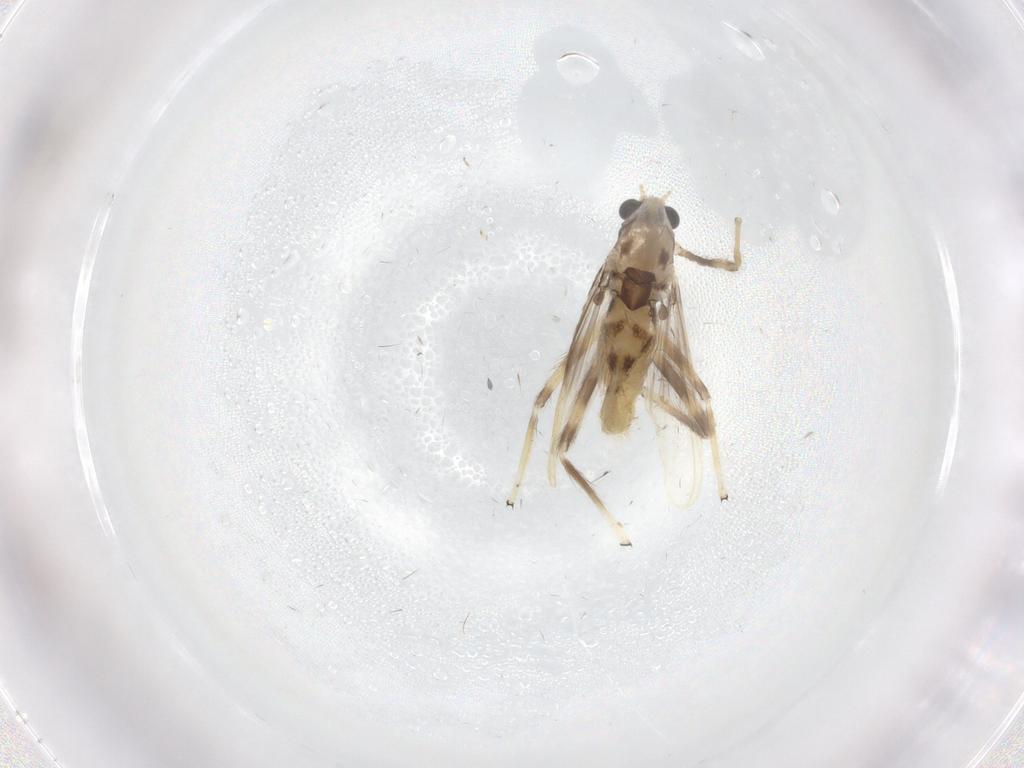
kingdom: Animalia
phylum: Arthropoda
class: Insecta
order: Diptera
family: Chironomidae
